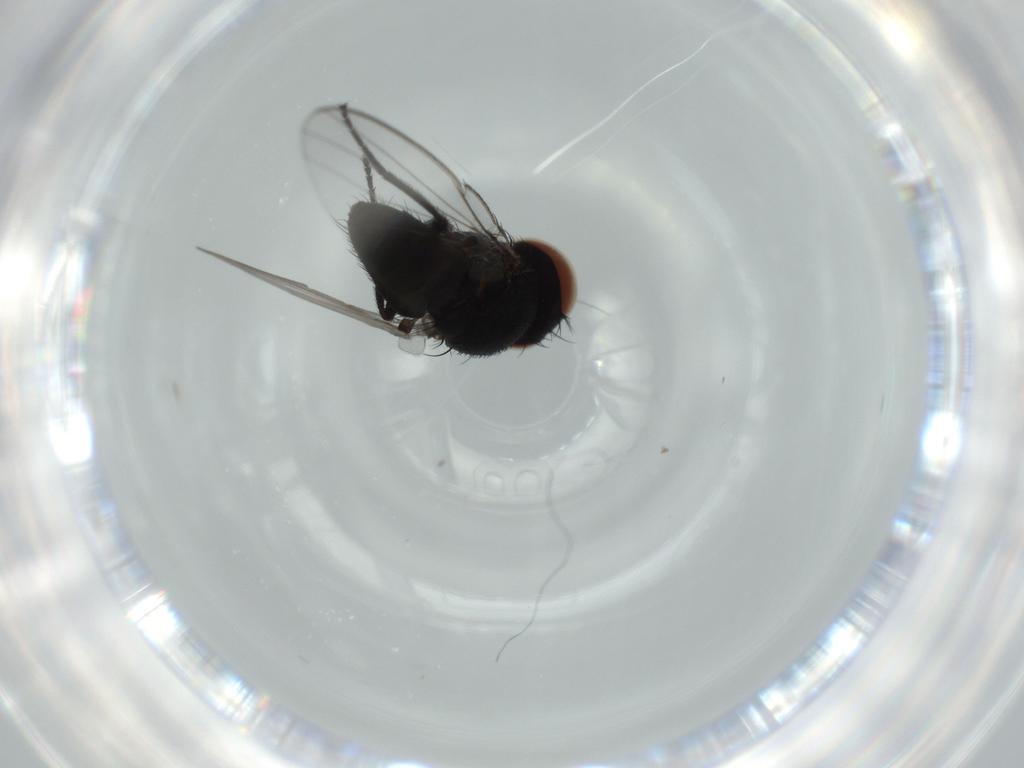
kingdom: Animalia
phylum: Arthropoda
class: Insecta
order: Diptera
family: Milichiidae
